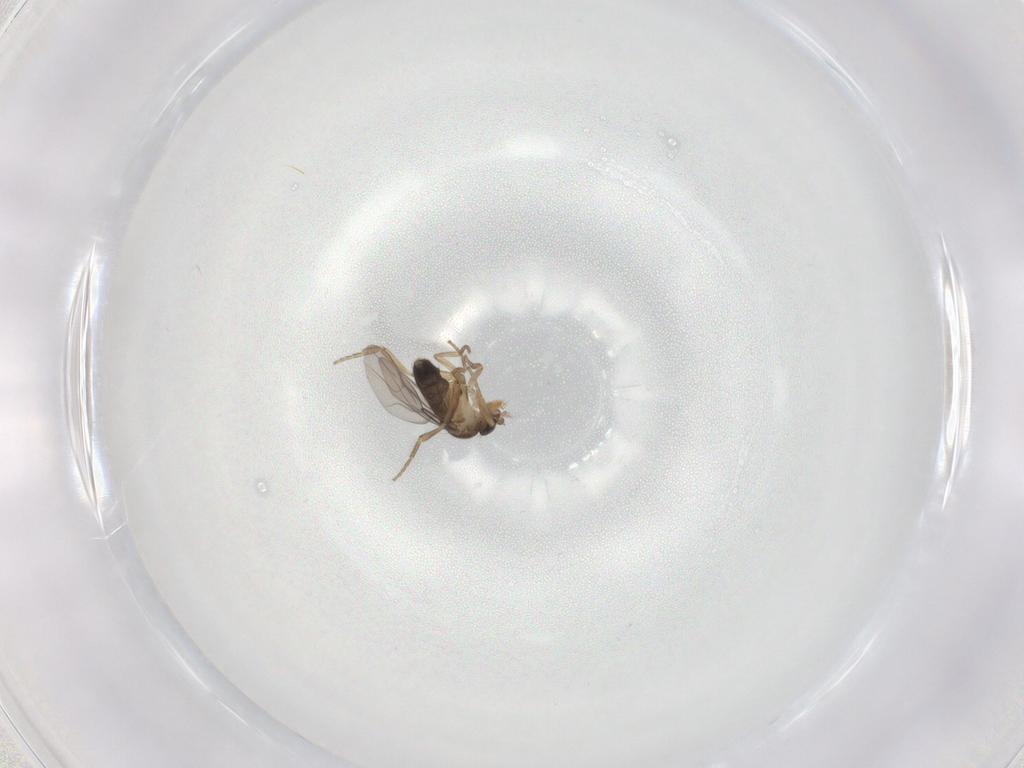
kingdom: Animalia
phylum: Arthropoda
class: Insecta
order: Diptera
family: Phoridae
